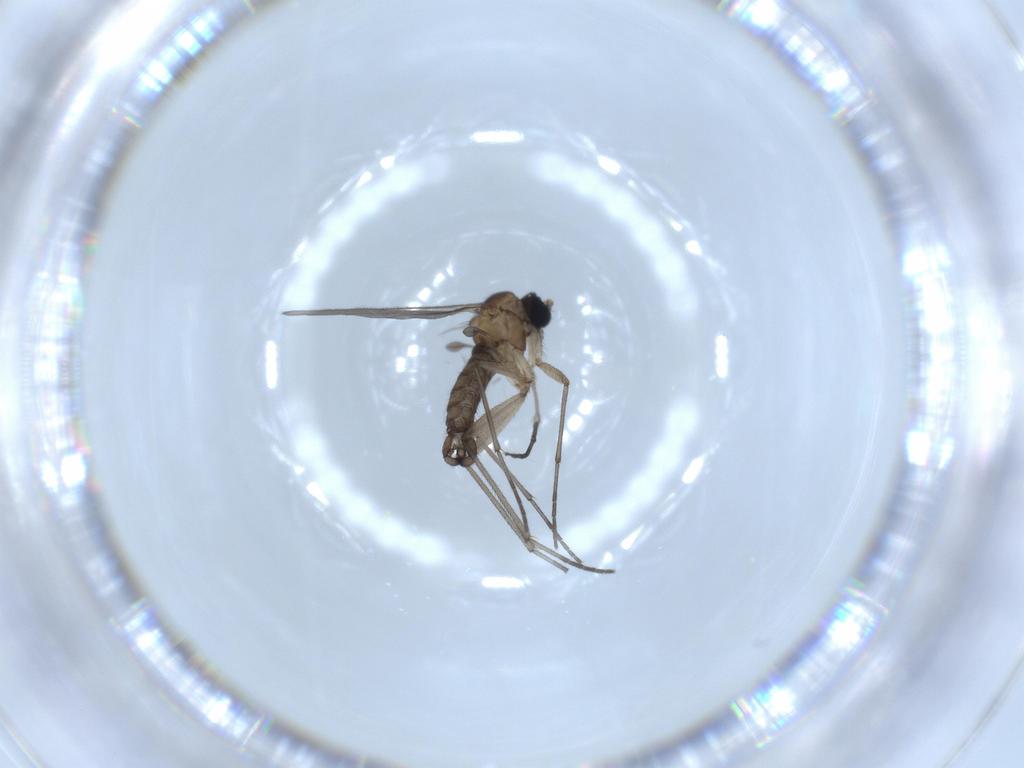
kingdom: Animalia
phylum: Arthropoda
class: Insecta
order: Diptera
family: Sciaridae
